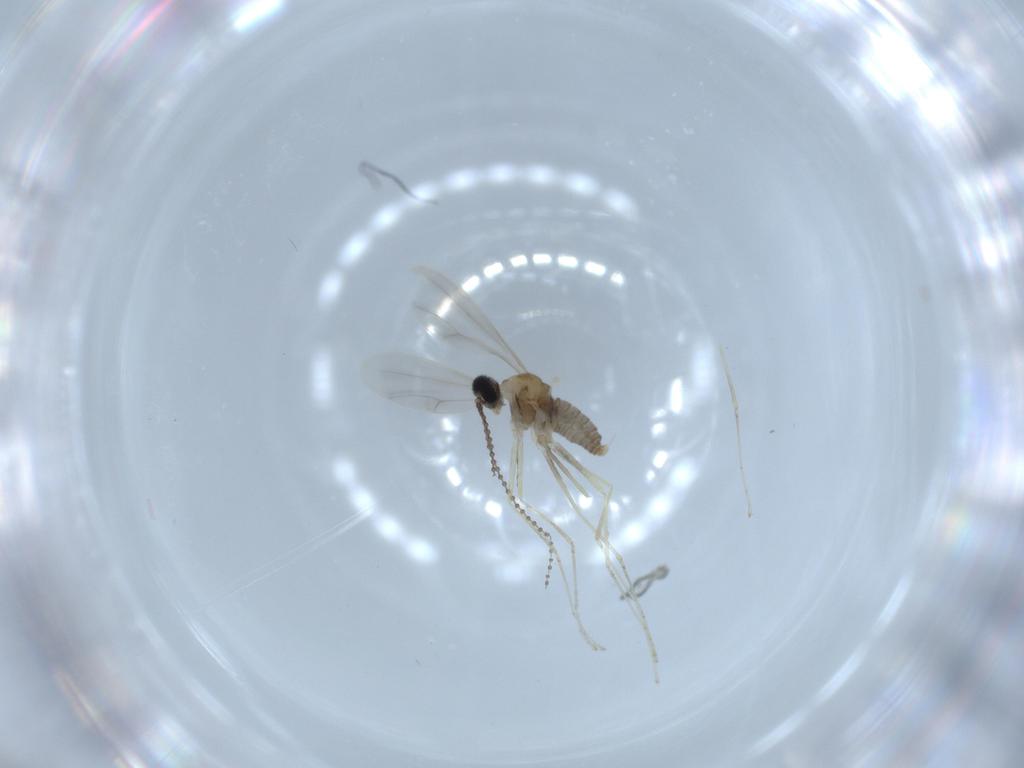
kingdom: Animalia
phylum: Arthropoda
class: Insecta
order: Diptera
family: Cecidomyiidae
